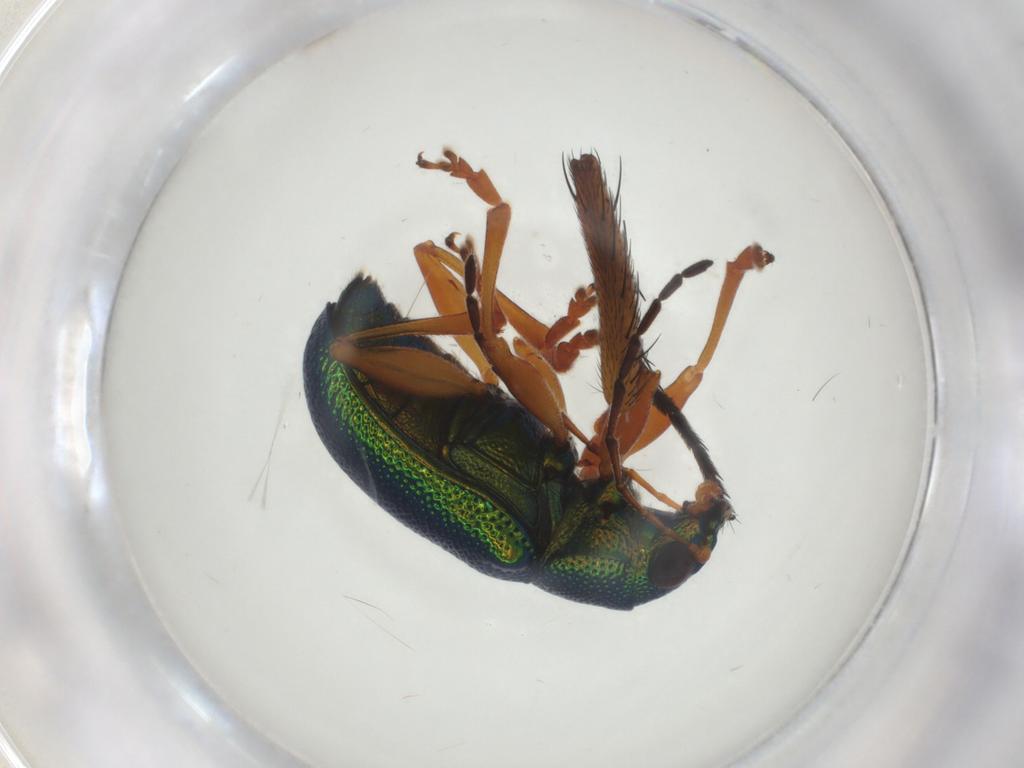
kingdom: Animalia
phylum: Arthropoda
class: Insecta
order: Coleoptera
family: Chrysomelidae
